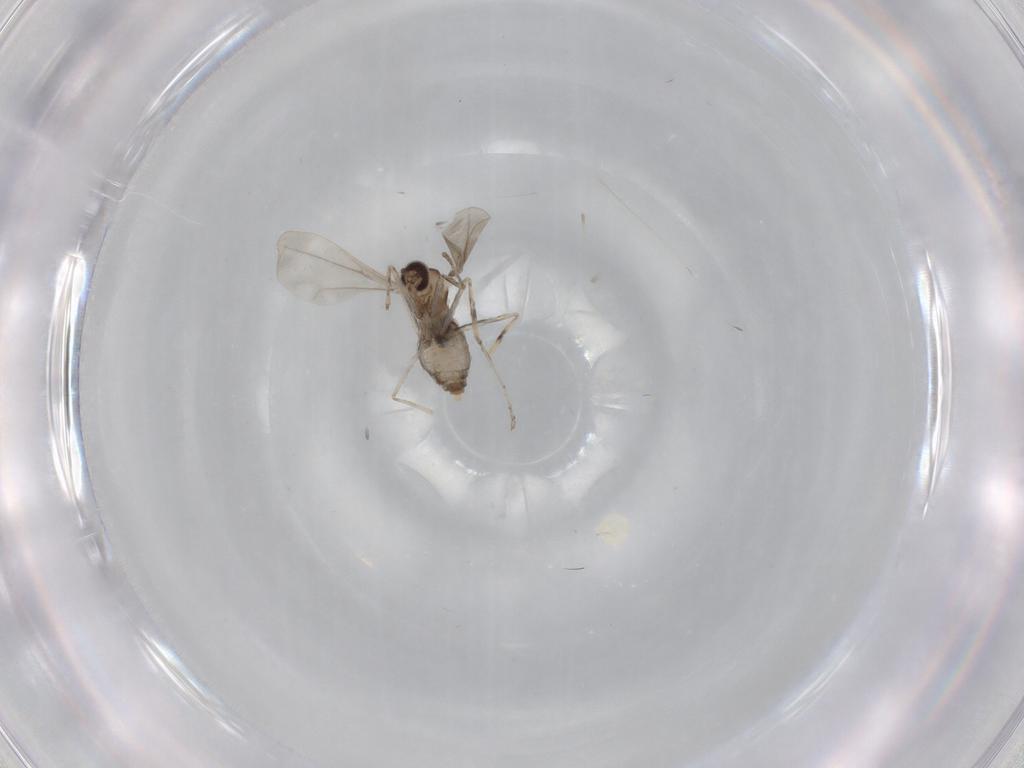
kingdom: Animalia
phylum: Arthropoda
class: Insecta
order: Diptera
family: Cecidomyiidae
